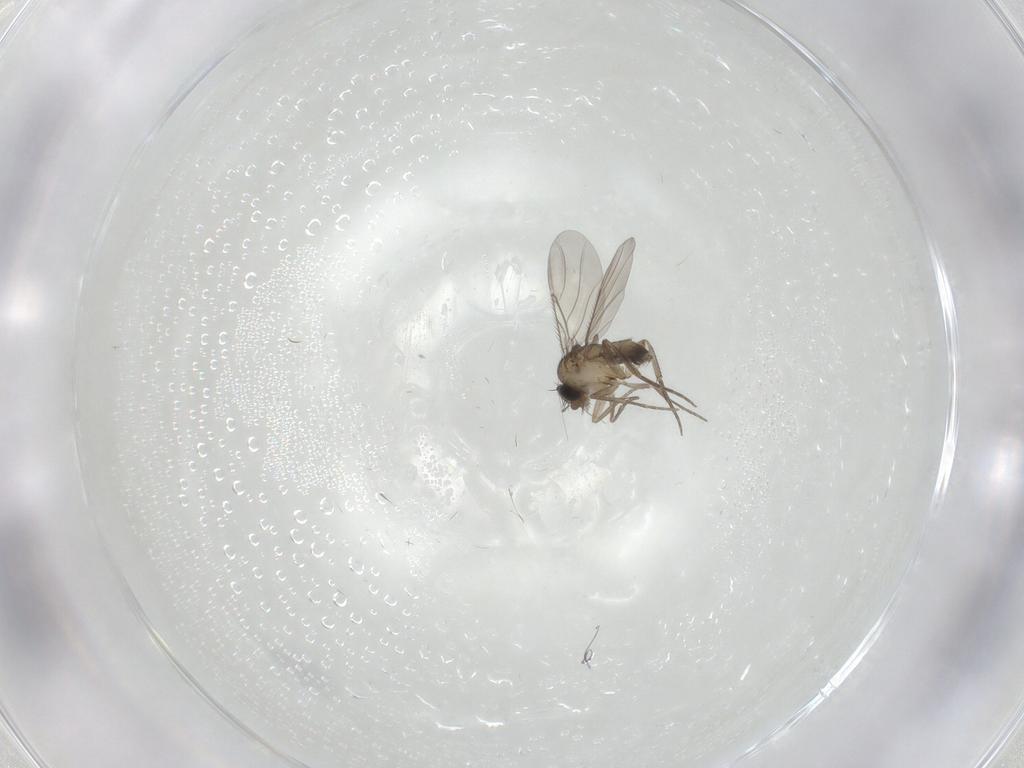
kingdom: Animalia
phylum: Arthropoda
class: Insecta
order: Diptera
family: Phoridae
